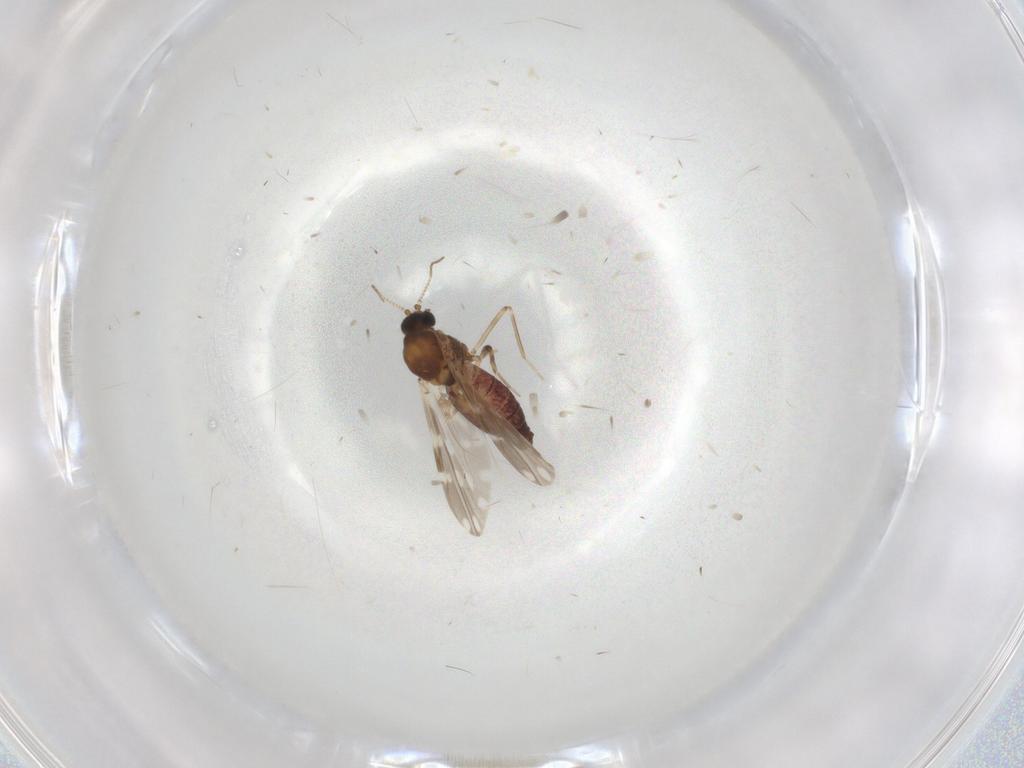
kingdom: Animalia
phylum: Arthropoda
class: Insecta
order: Diptera
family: Ceratopogonidae
